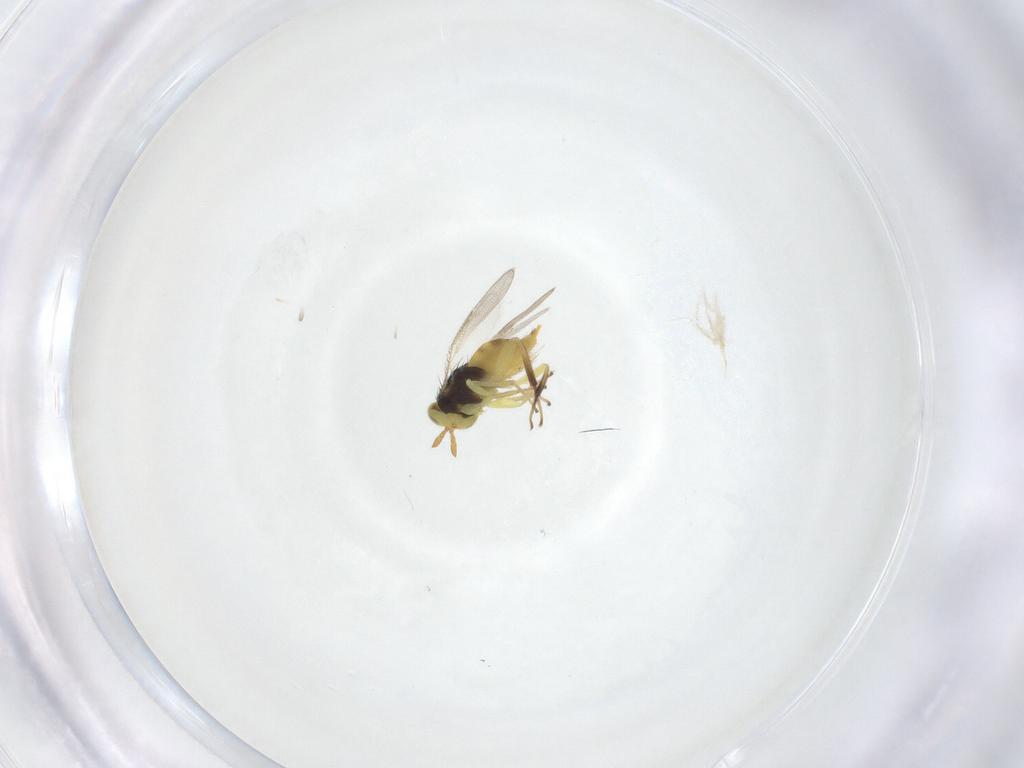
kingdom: Animalia
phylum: Arthropoda
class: Insecta
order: Hymenoptera
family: Aphelinidae
